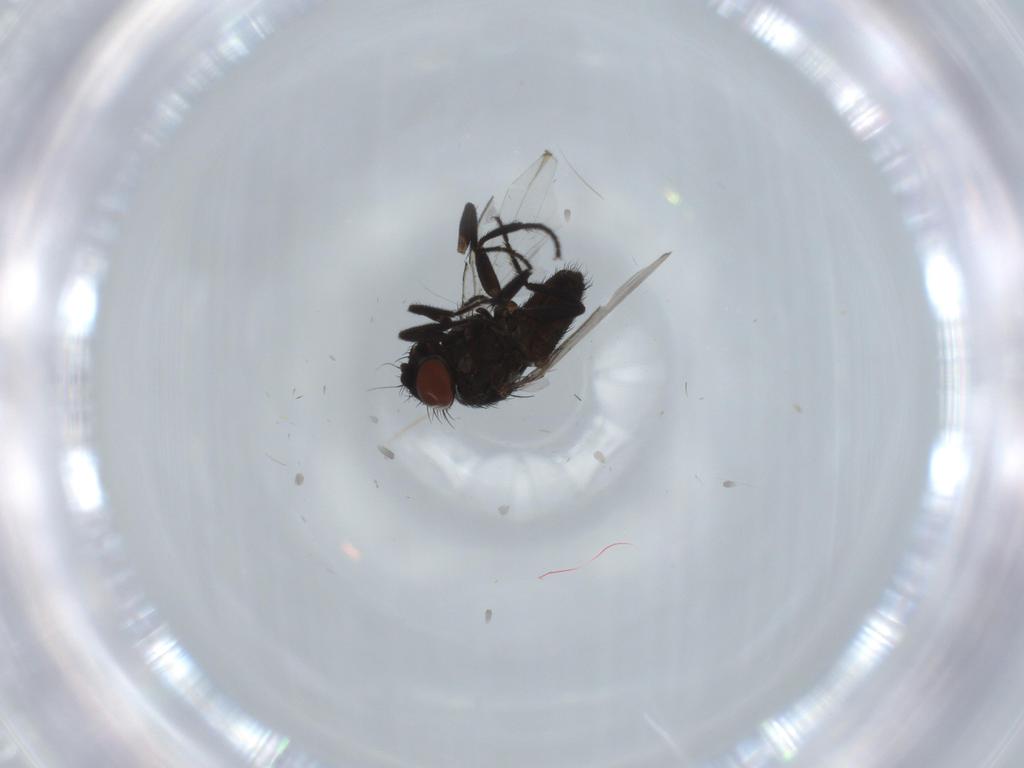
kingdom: Animalia
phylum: Arthropoda
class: Insecta
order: Diptera
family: Milichiidae
